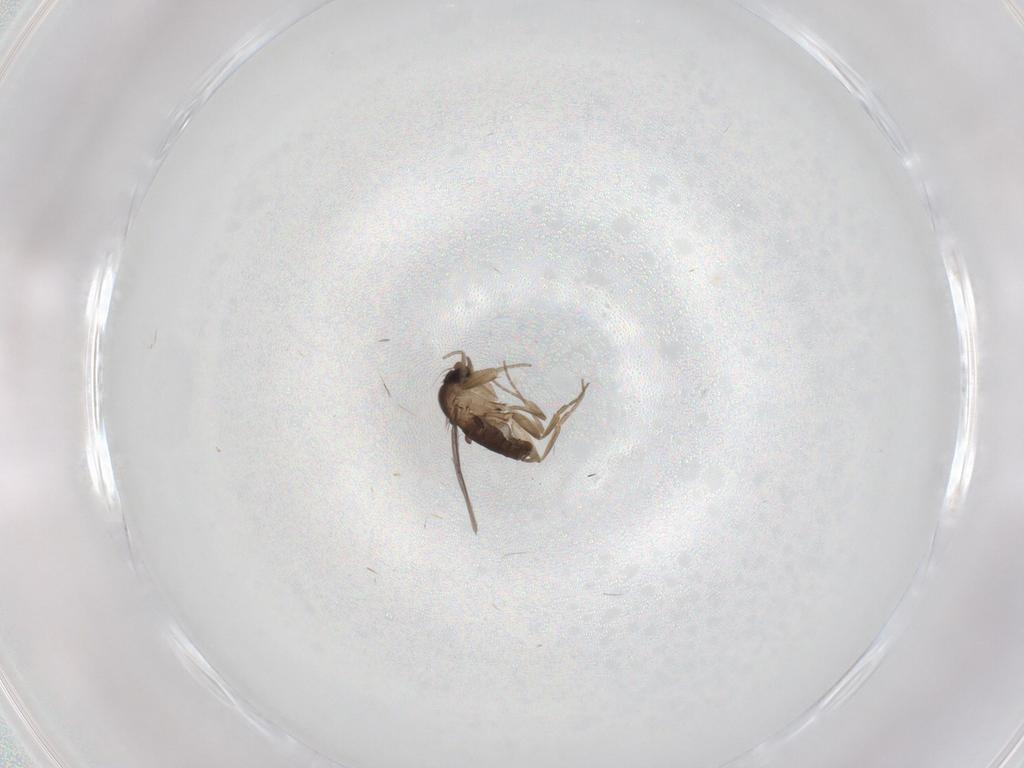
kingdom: Animalia
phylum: Arthropoda
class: Insecta
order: Diptera
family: Phoridae
